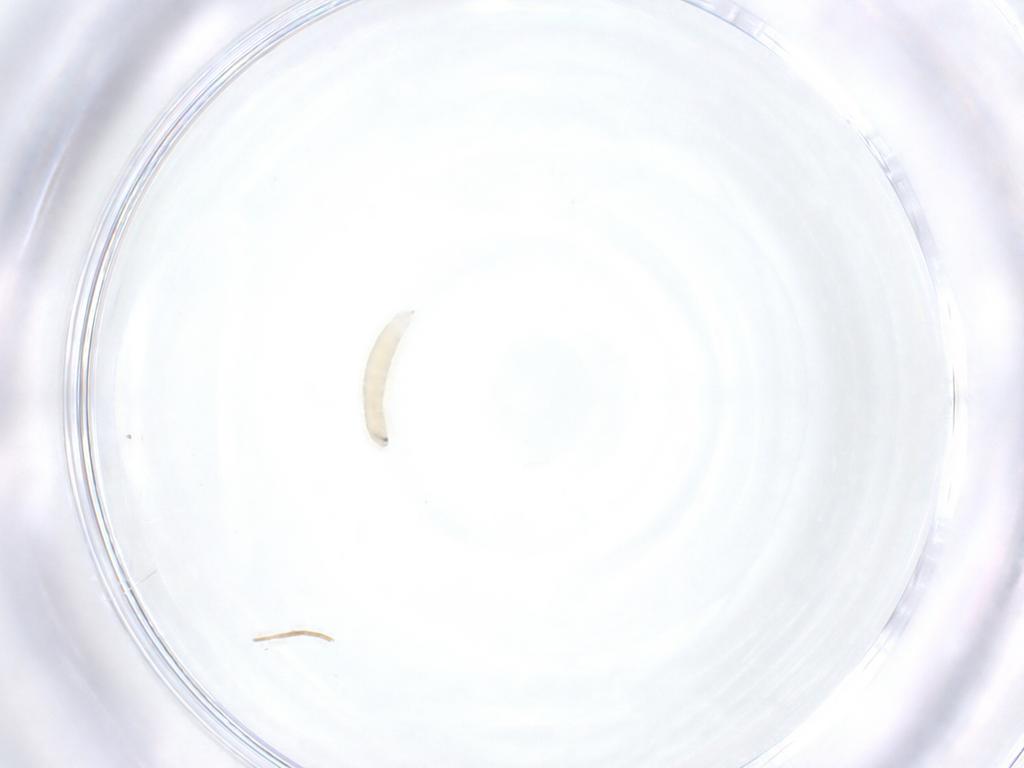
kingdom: Animalia
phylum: Arthropoda
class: Insecta
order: Diptera
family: Tachinidae
